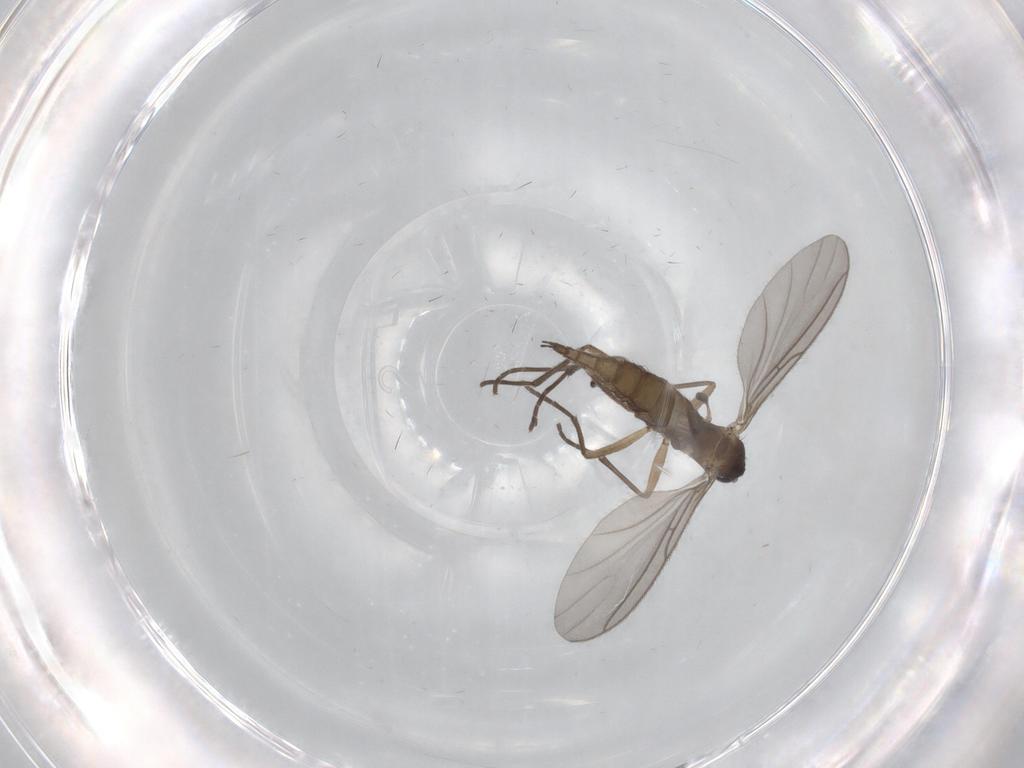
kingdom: Animalia
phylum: Arthropoda
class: Insecta
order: Diptera
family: Sciaridae
